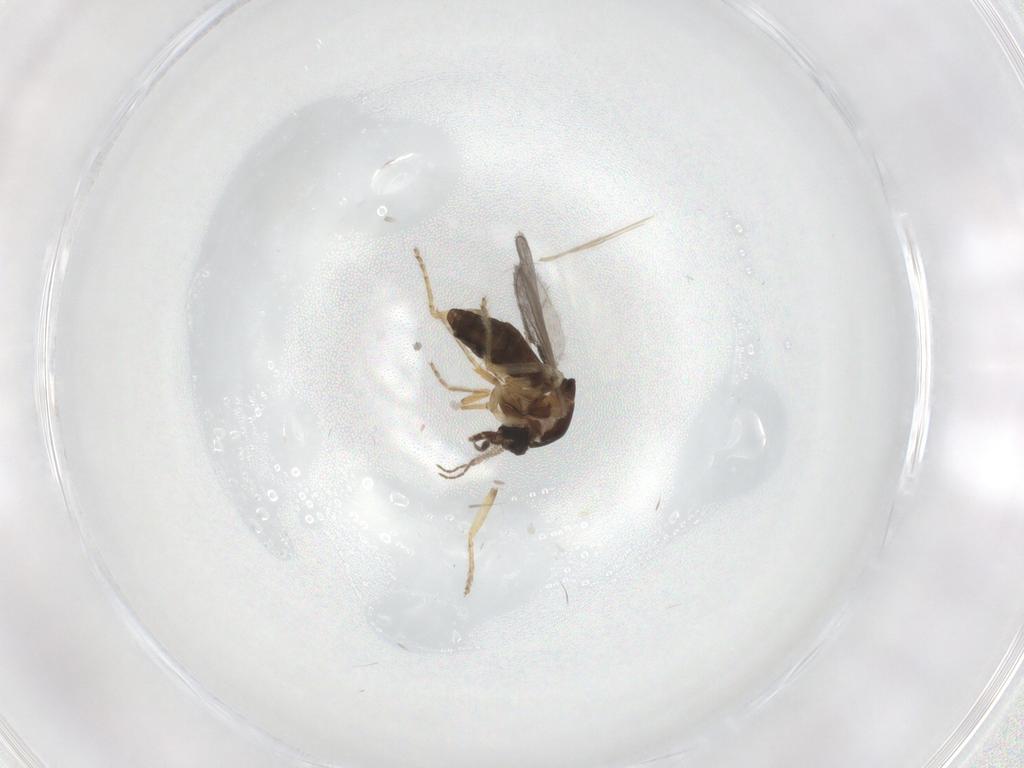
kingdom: Animalia
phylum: Arthropoda
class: Insecta
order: Diptera
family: Ceratopogonidae
